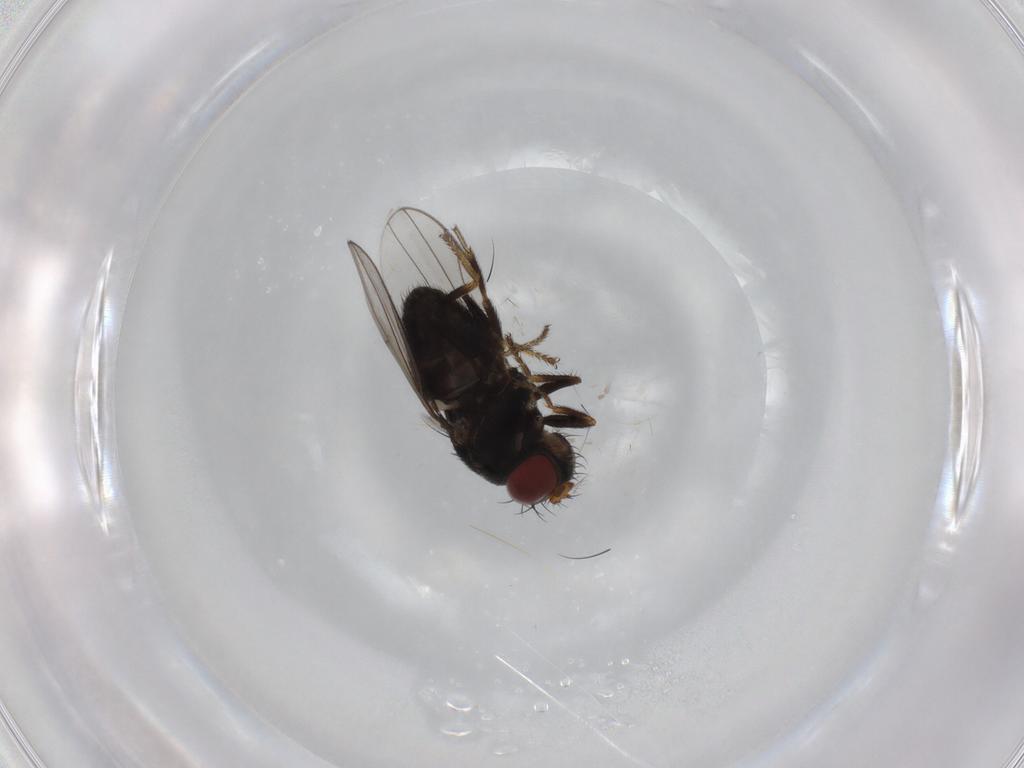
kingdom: Animalia
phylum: Arthropoda
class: Insecta
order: Diptera
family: Ephydridae
